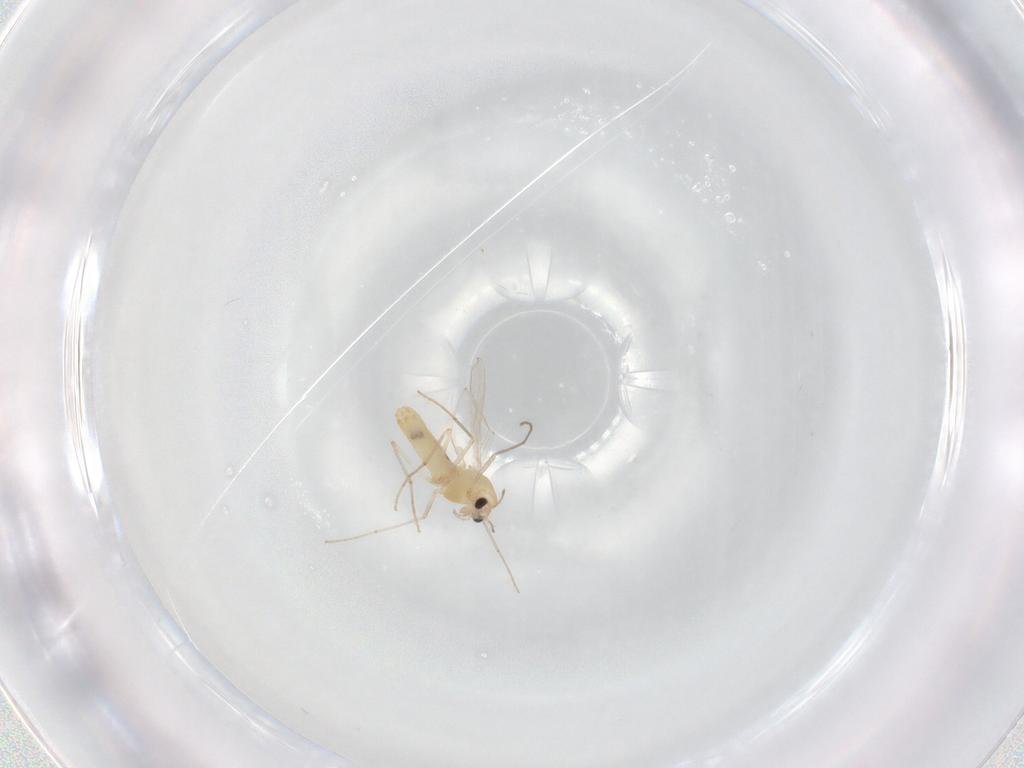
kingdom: Animalia
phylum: Arthropoda
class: Insecta
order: Diptera
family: Chironomidae
